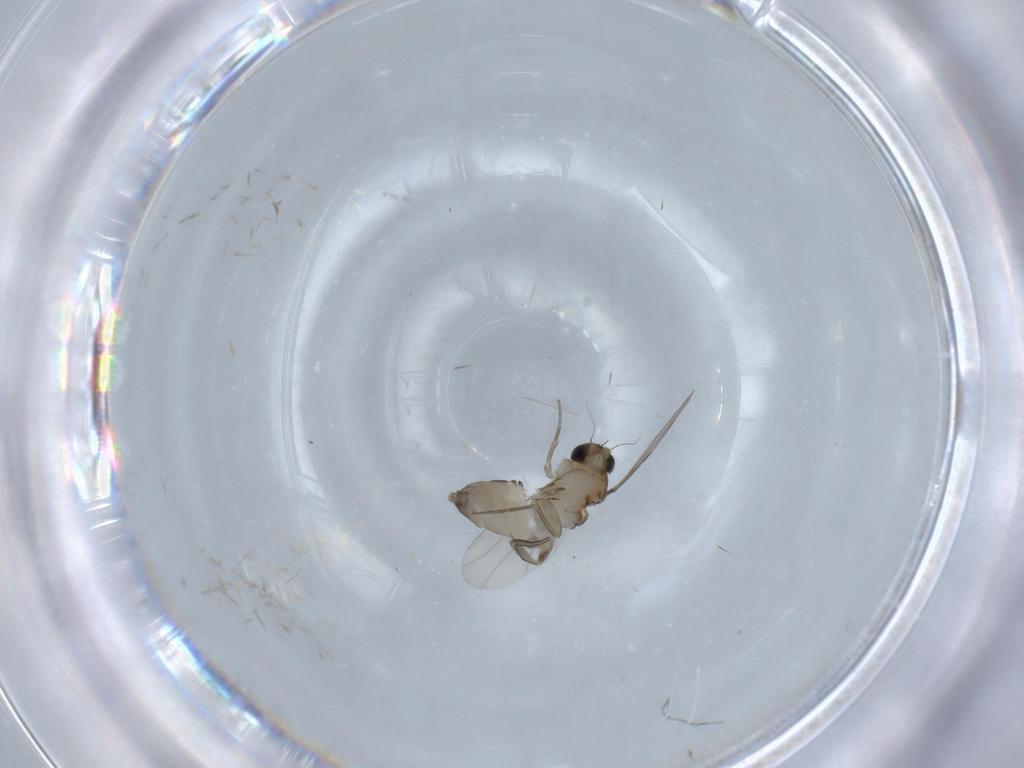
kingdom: Animalia
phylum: Arthropoda
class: Insecta
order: Diptera
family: Phoridae
